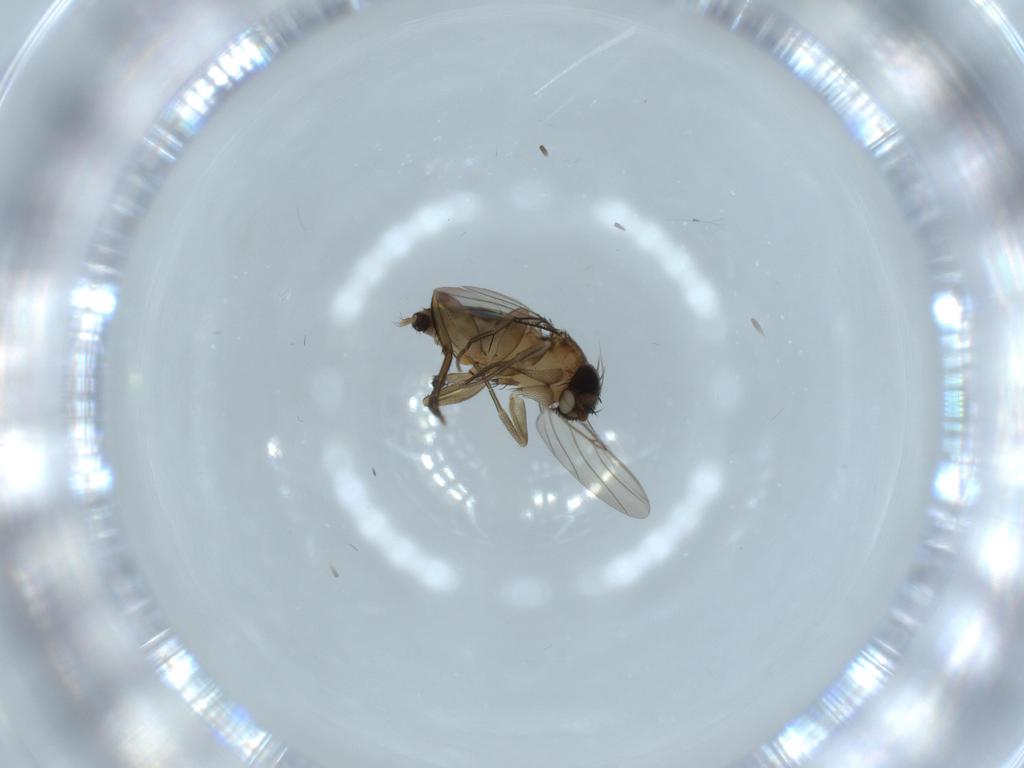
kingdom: Animalia
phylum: Arthropoda
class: Insecta
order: Diptera
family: Phoridae
